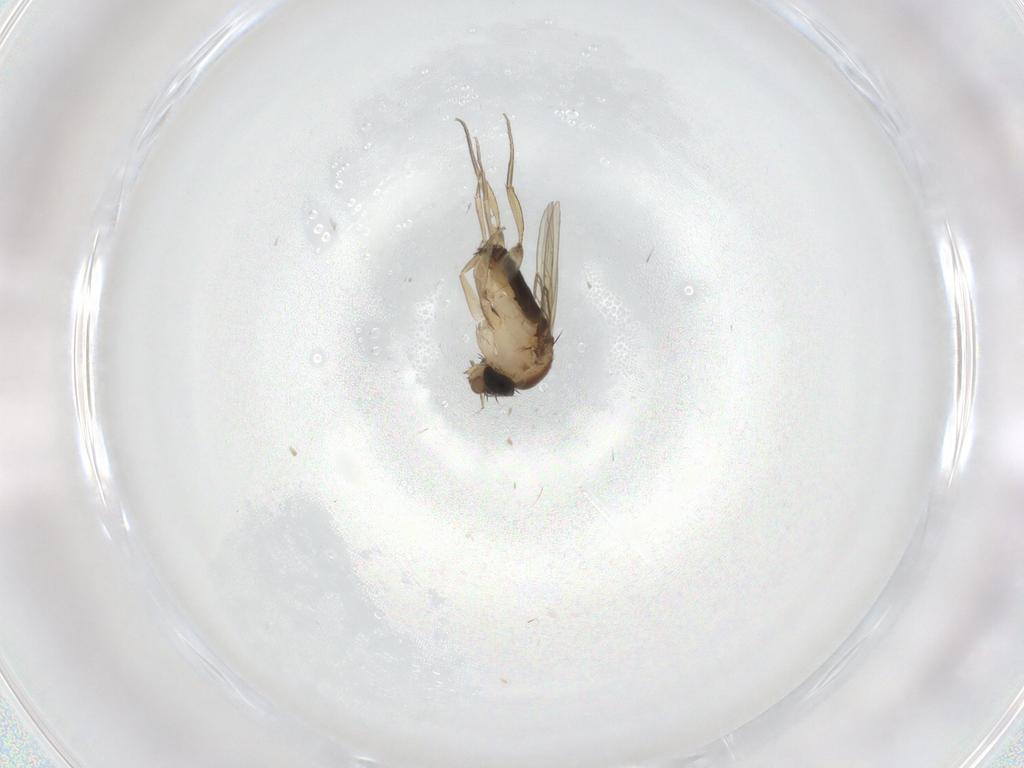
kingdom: Animalia
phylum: Arthropoda
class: Insecta
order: Diptera
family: Phoridae
